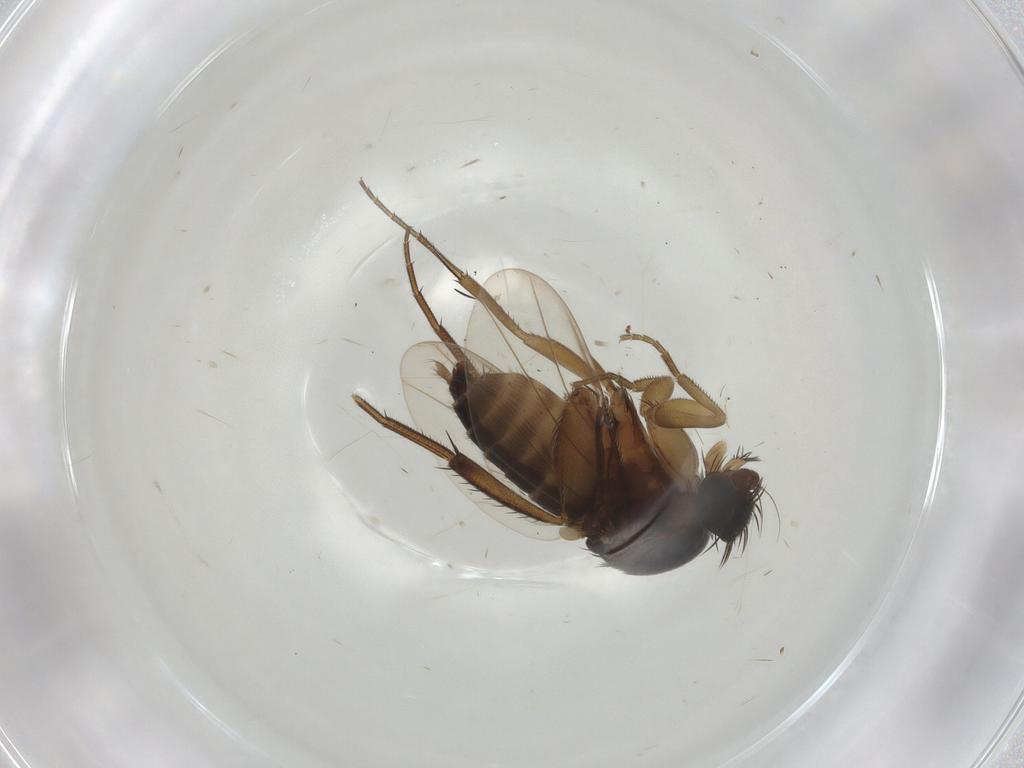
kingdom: Animalia
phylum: Arthropoda
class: Insecta
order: Diptera
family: Phoridae
